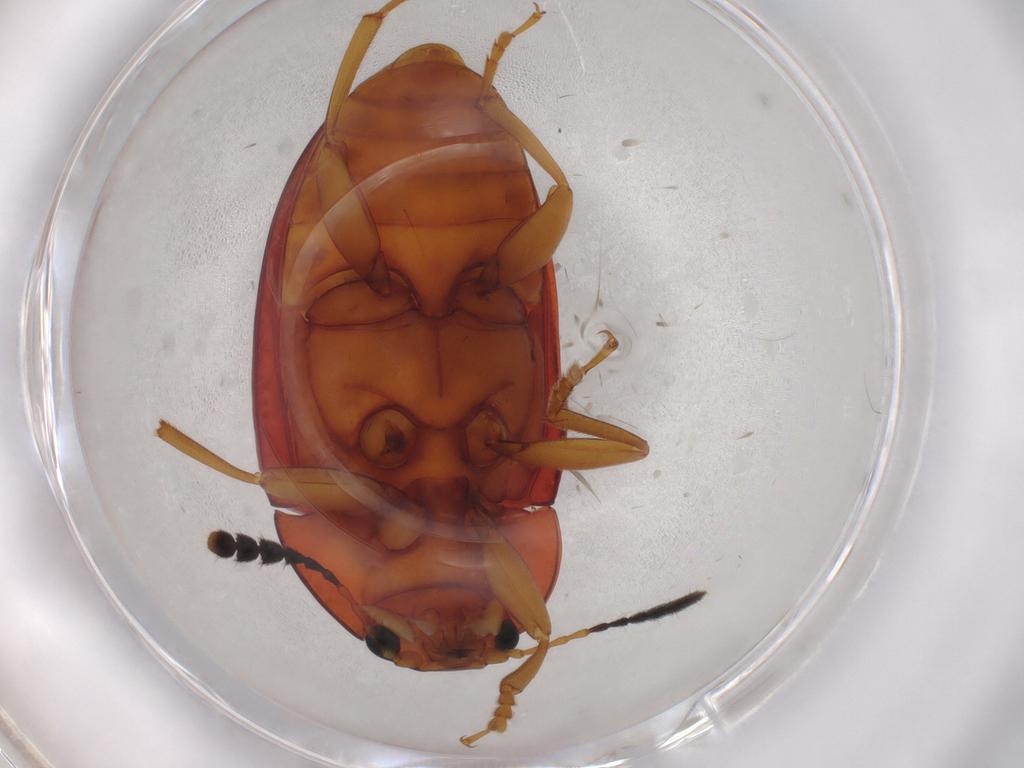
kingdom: Animalia
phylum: Arthropoda
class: Insecta
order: Coleoptera
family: Erotylidae
